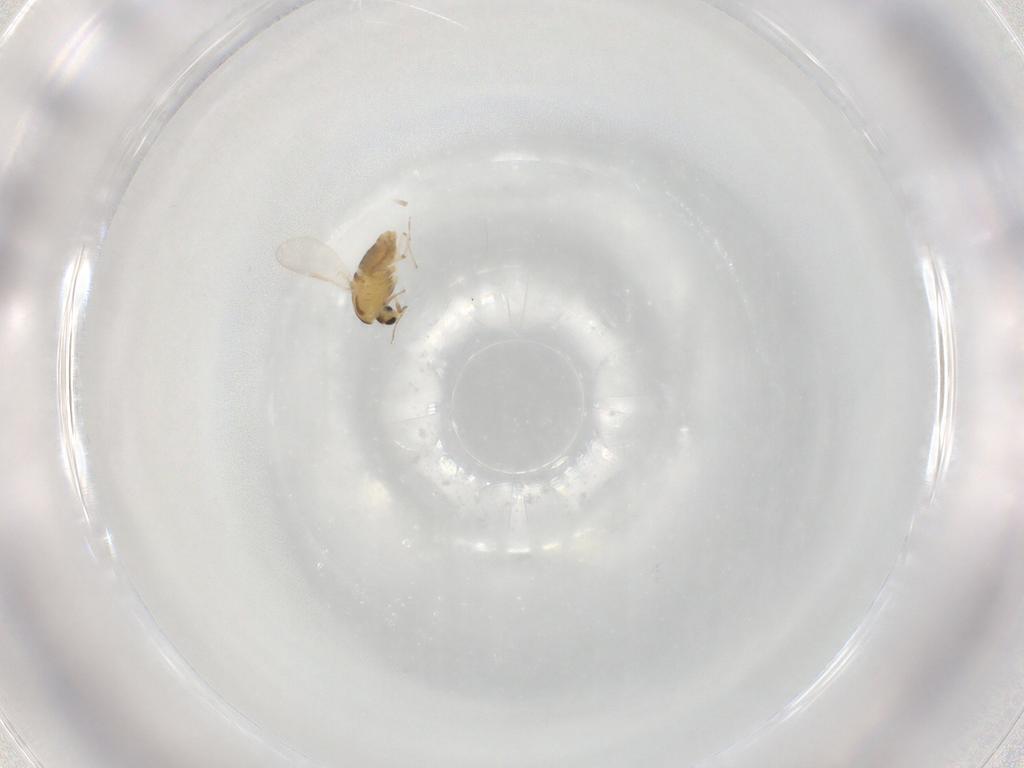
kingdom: Animalia
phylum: Arthropoda
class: Insecta
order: Diptera
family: Chironomidae
